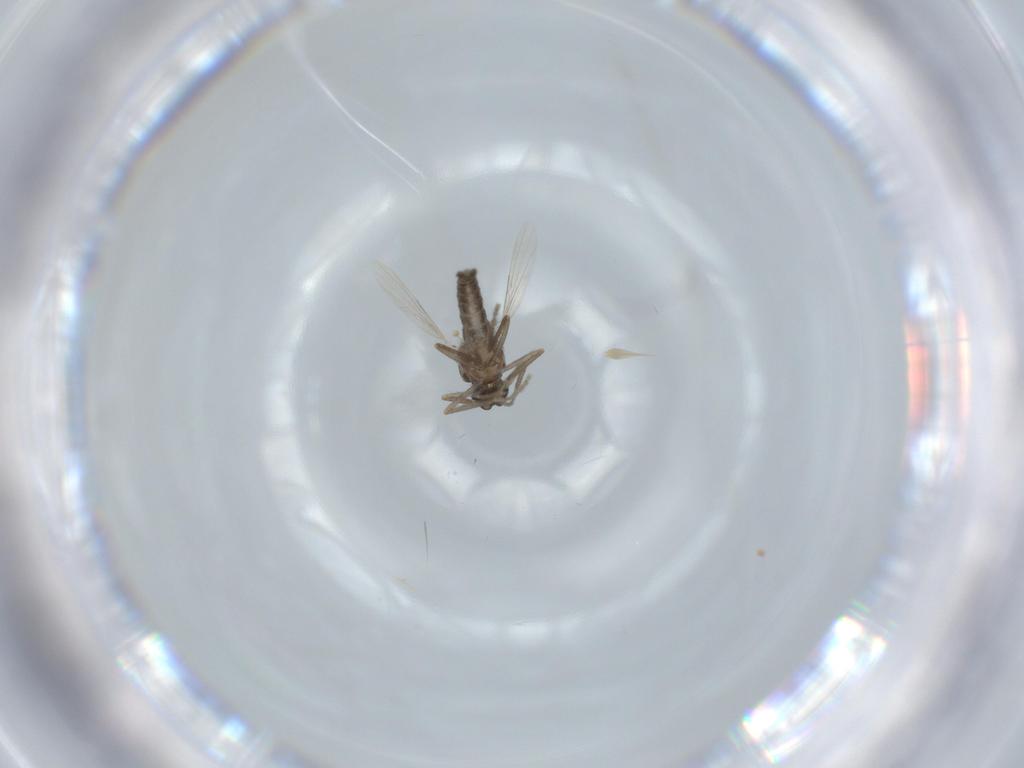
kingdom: Animalia
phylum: Arthropoda
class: Insecta
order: Diptera
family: Ceratopogonidae
